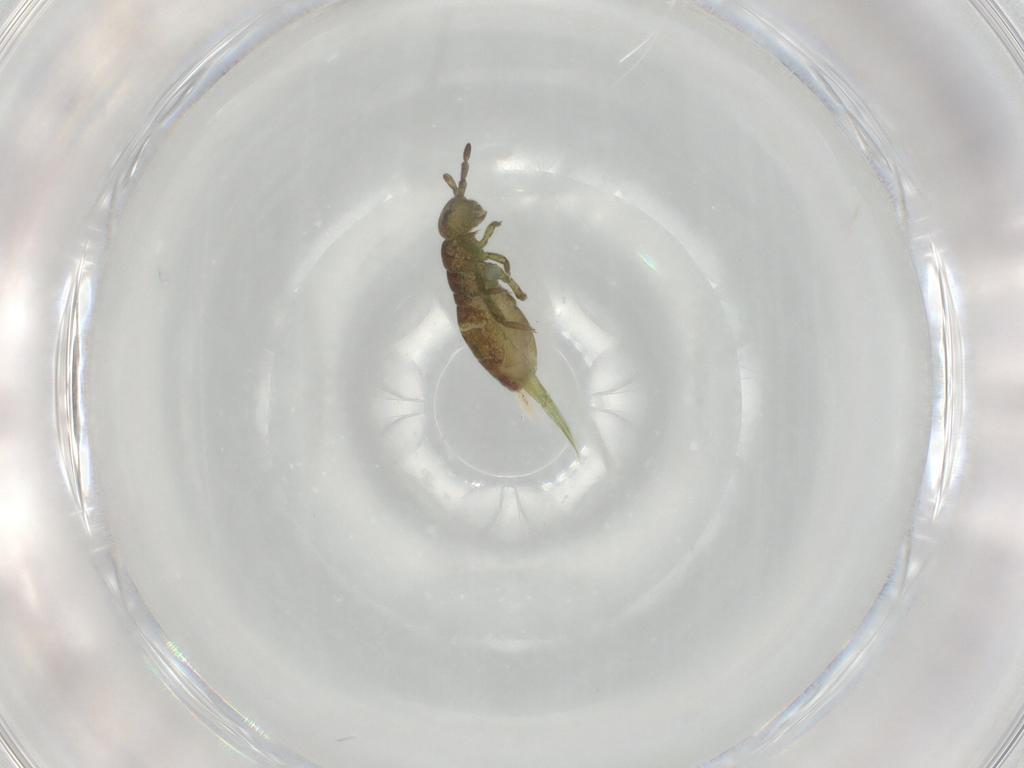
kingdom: Animalia
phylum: Arthropoda
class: Collembola
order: Entomobryomorpha
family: Isotomidae
